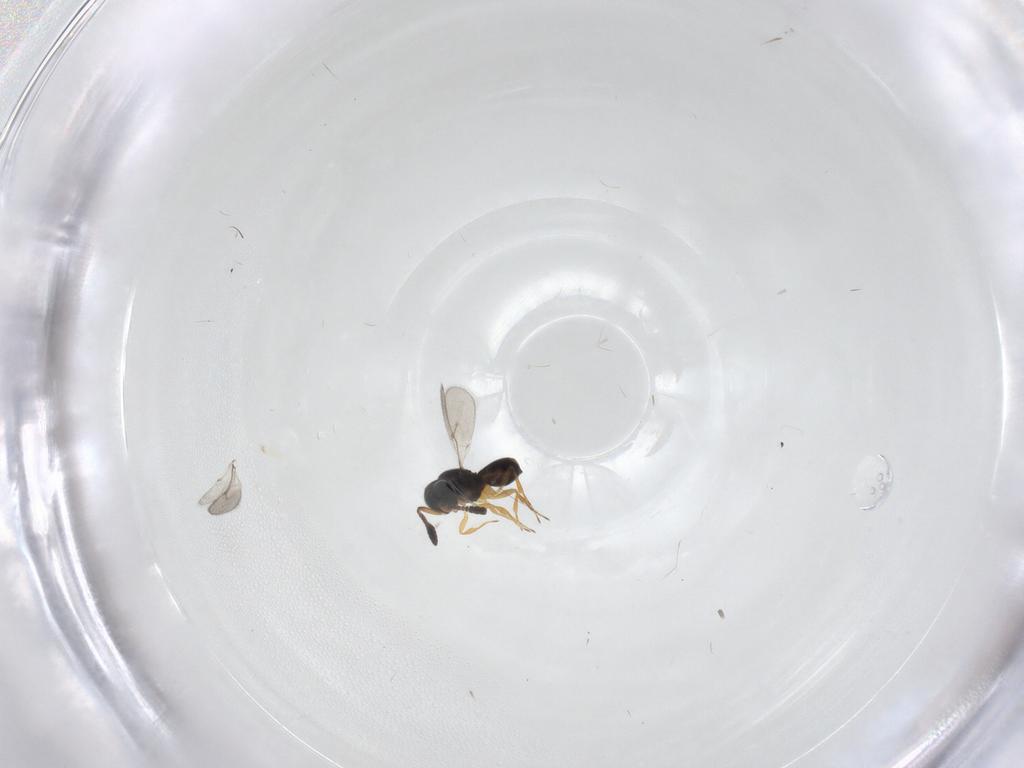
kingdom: Animalia
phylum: Arthropoda
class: Insecta
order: Hymenoptera
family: Scelionidae
